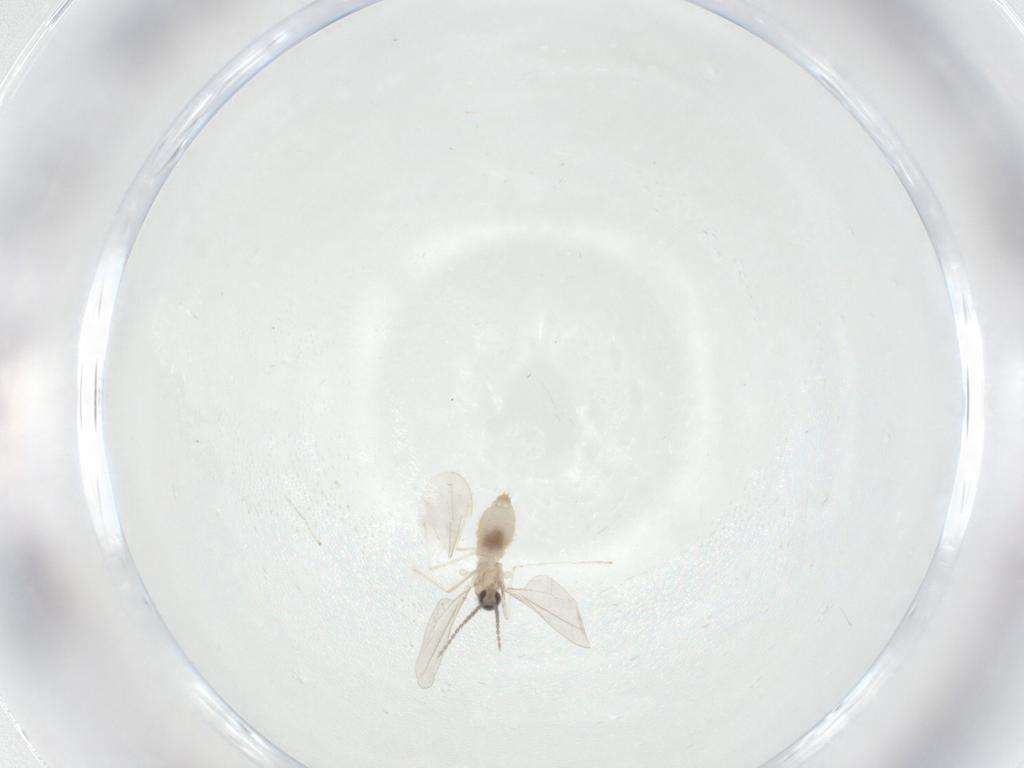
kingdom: Animalia
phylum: Arthropoda
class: Insecta
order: Diptera
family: Cecidomyiidae
